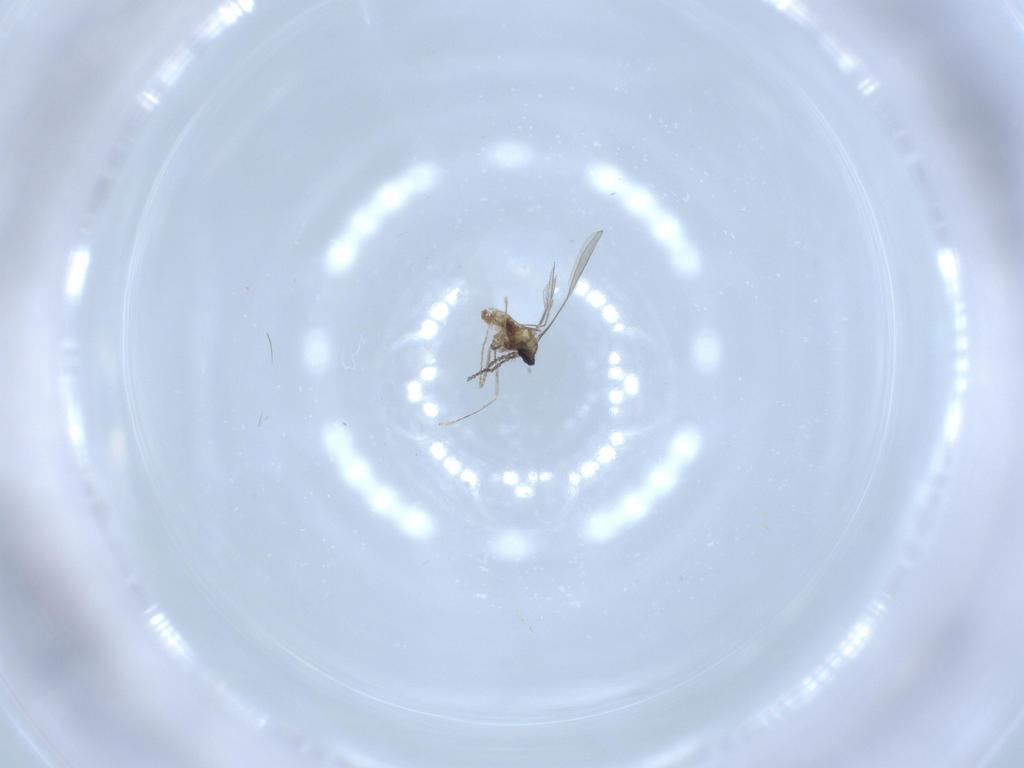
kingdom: Animalia
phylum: Arthropoda
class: Insecta
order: Diptera
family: Cecidomyiidae
